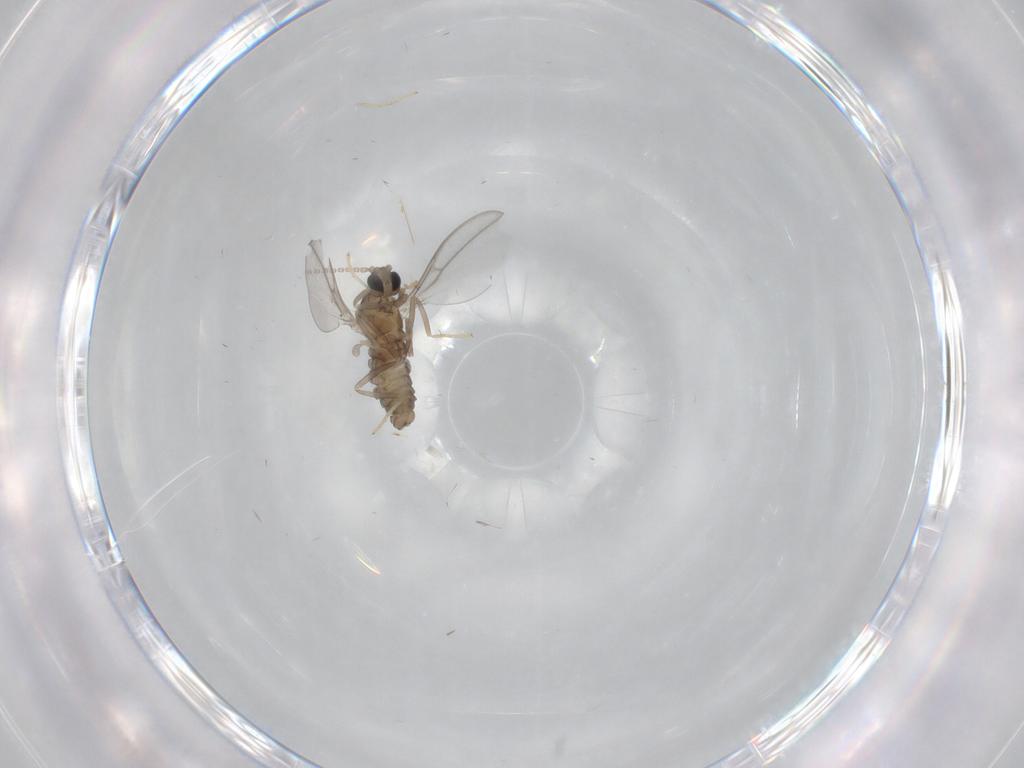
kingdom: Animalia
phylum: Arthropoda
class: Insecta
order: Diptera
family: Cecidomyiidae
